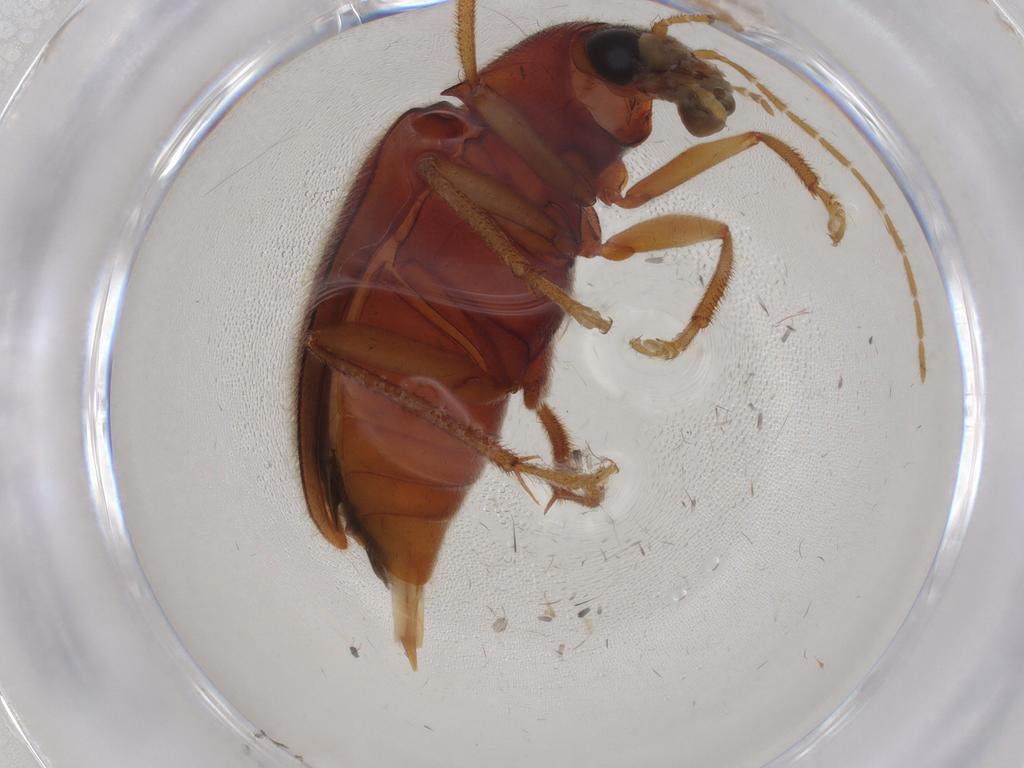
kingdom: Animalia
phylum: Arthropoda
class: Insecta
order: Coleoptera
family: Ptilodactylidae
